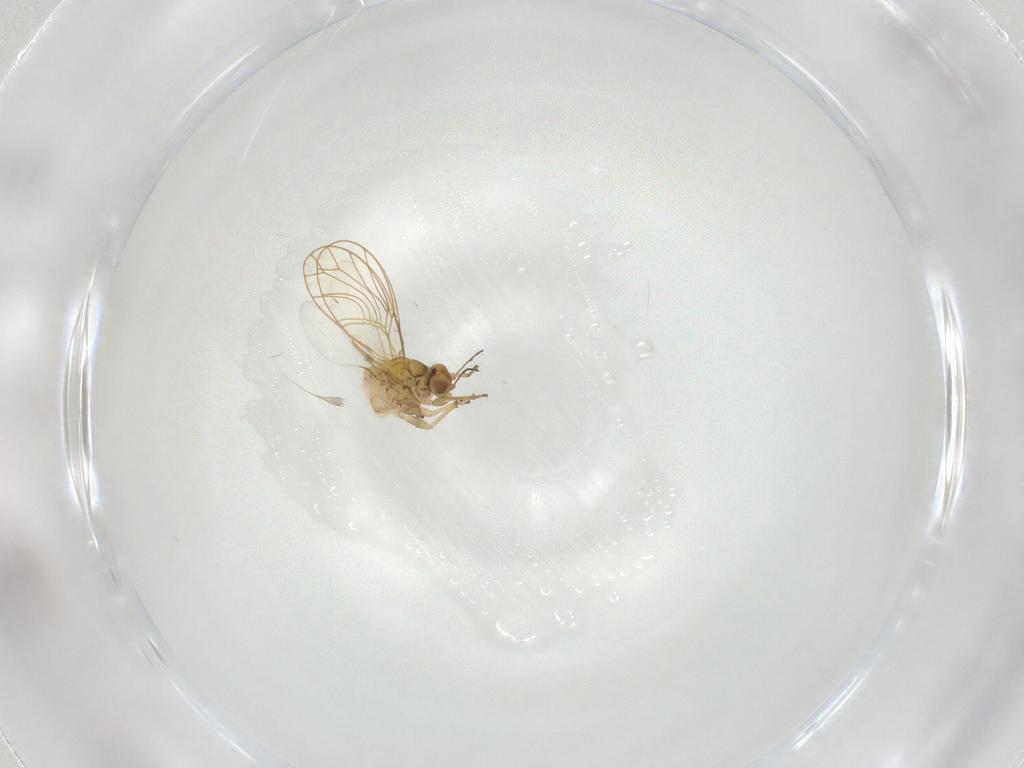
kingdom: Animalia
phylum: Arthropoda
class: Insecta
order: Hemiptera
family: Psylloidea_incertae_sedis
